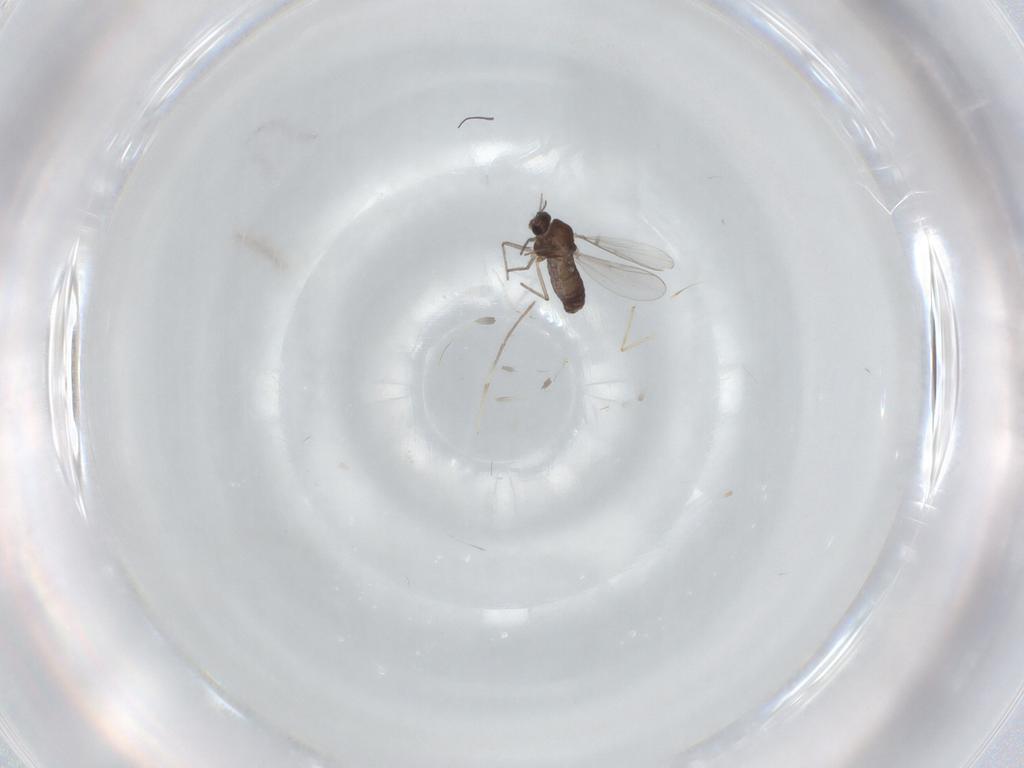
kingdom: Animalia
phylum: Arthropoda
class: Insecta
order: Diptera
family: Chironomidae
